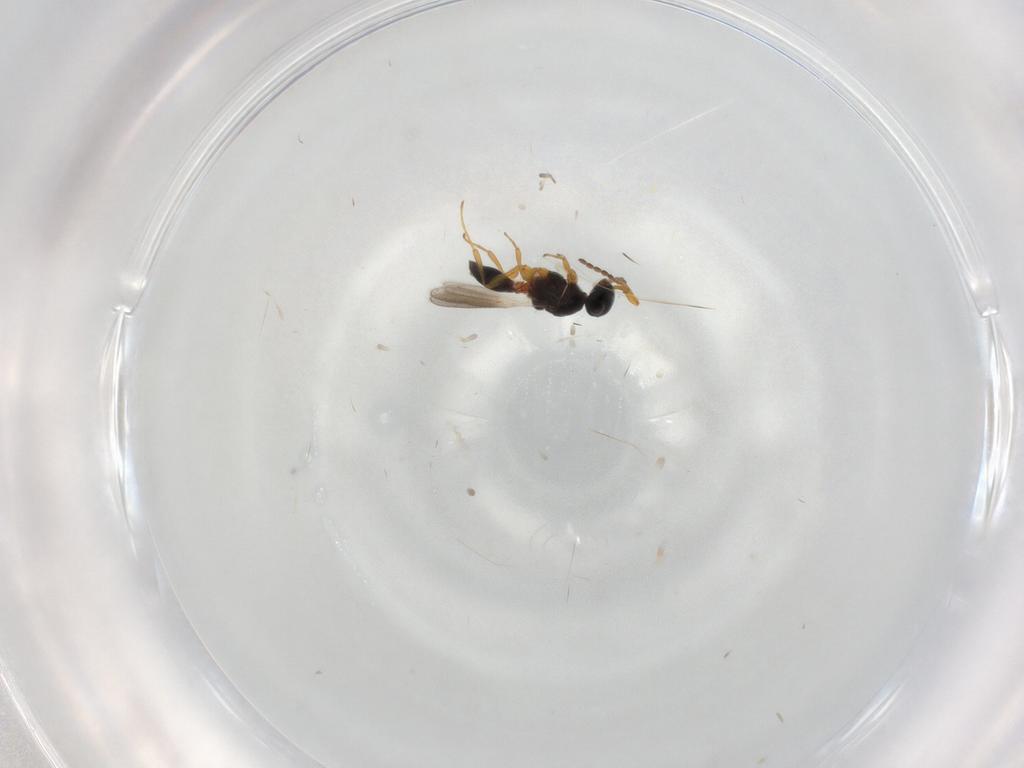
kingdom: Animalia
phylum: Arthropoda
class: Insecta
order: Hymenoptera
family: Platygastridae
